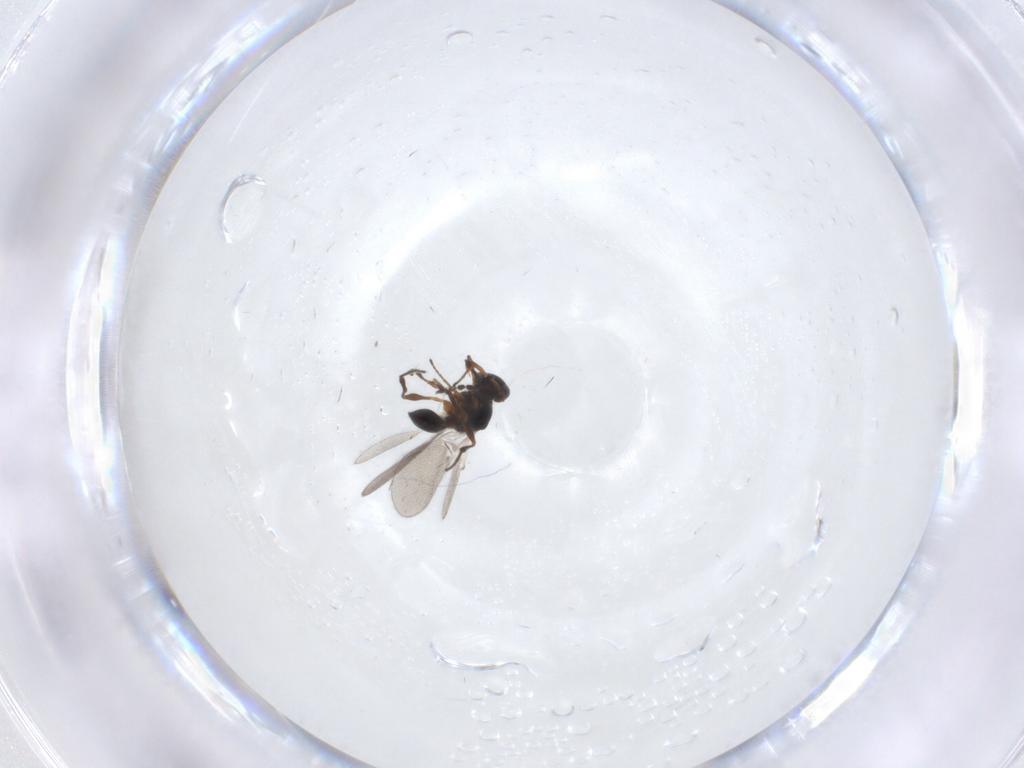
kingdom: Animalia
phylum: Arthropoda
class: Insecta
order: Hymenoptera
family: Platygastridae
